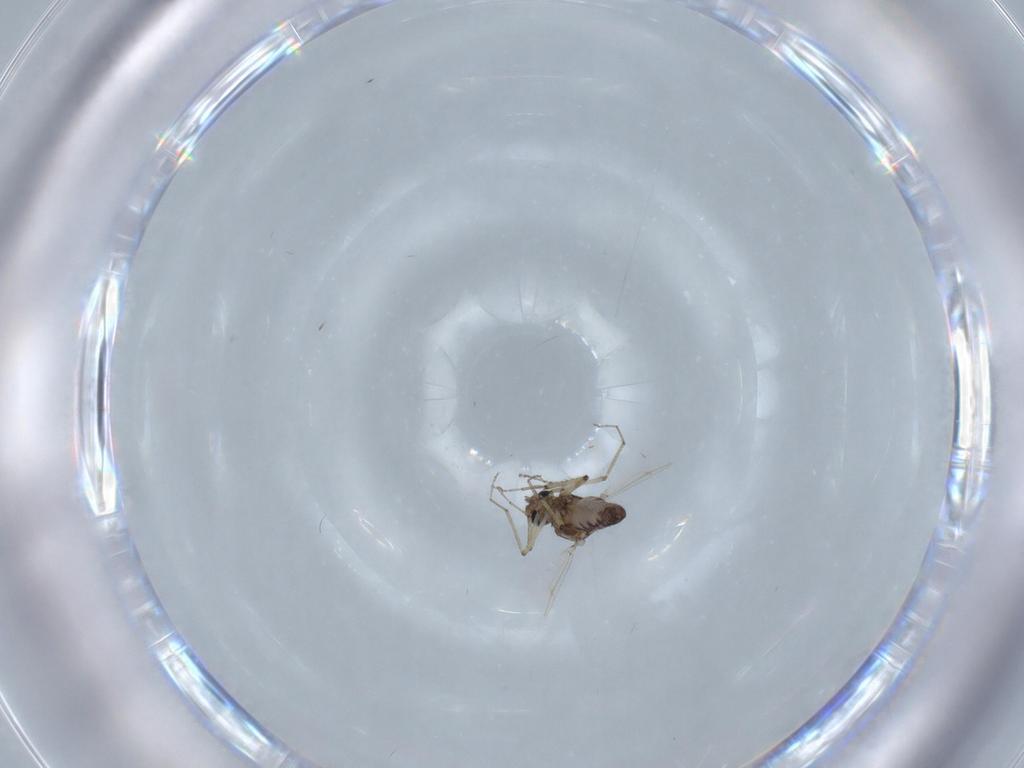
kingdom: Animalia
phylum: Arthropoda
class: Insecta
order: Diptera
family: Ceratopogonidae
